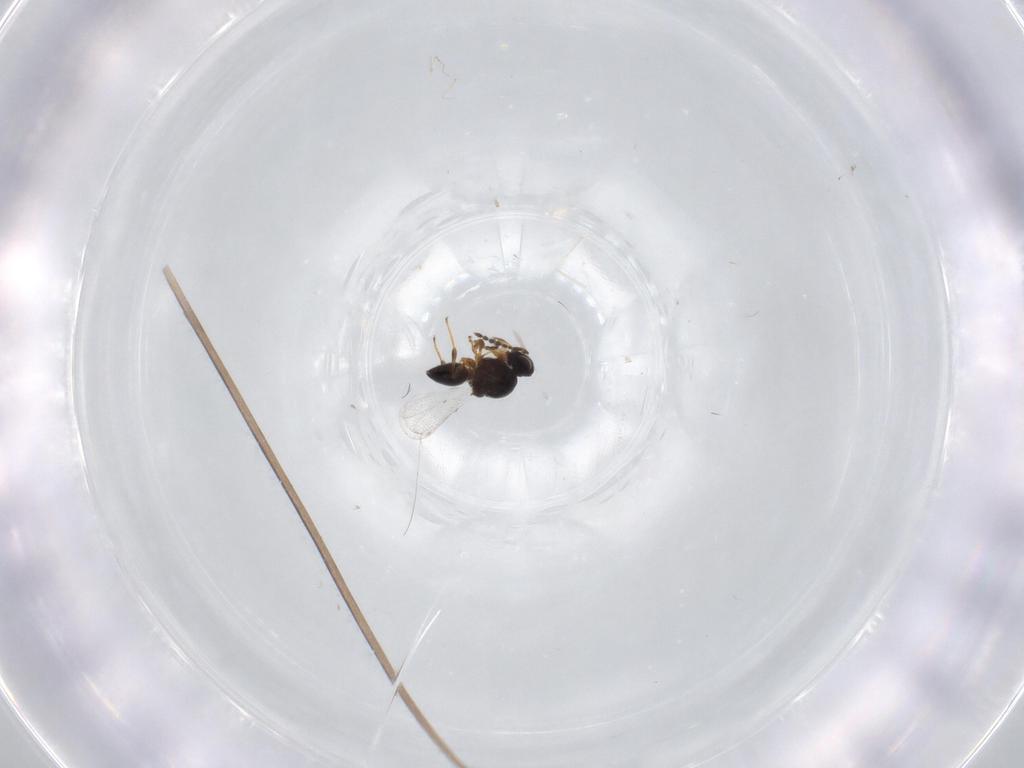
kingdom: Animalia
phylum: Arthropoda
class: Insecta
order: Hymenoptera
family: Platygastridae
